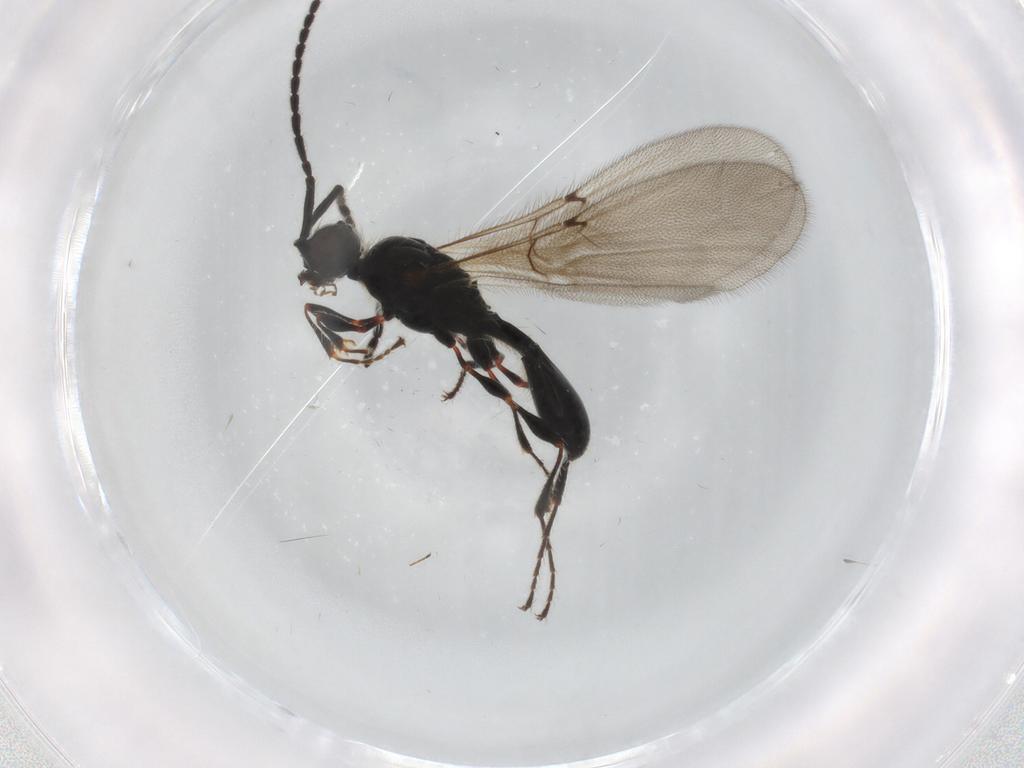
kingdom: Animalia
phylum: Arthropoda
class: Insecta
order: Hymenoptera
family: Diapriidae
